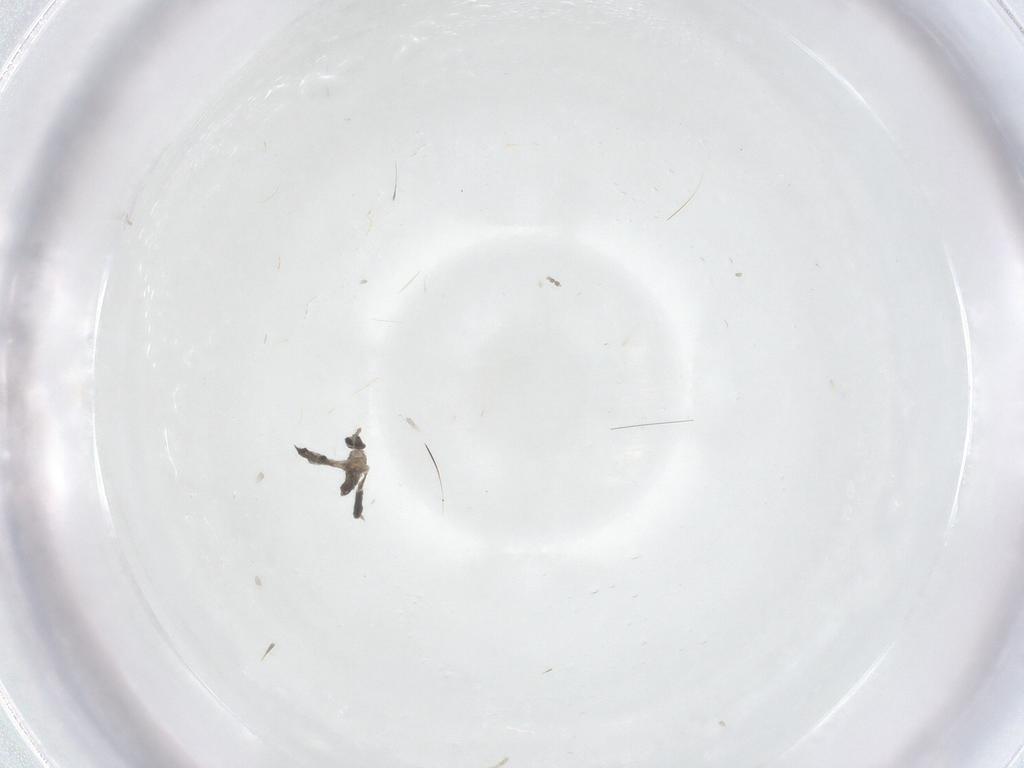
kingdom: Animalia
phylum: Arthropoda
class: Insecta
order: Diptera
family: Cecidomyiidae
